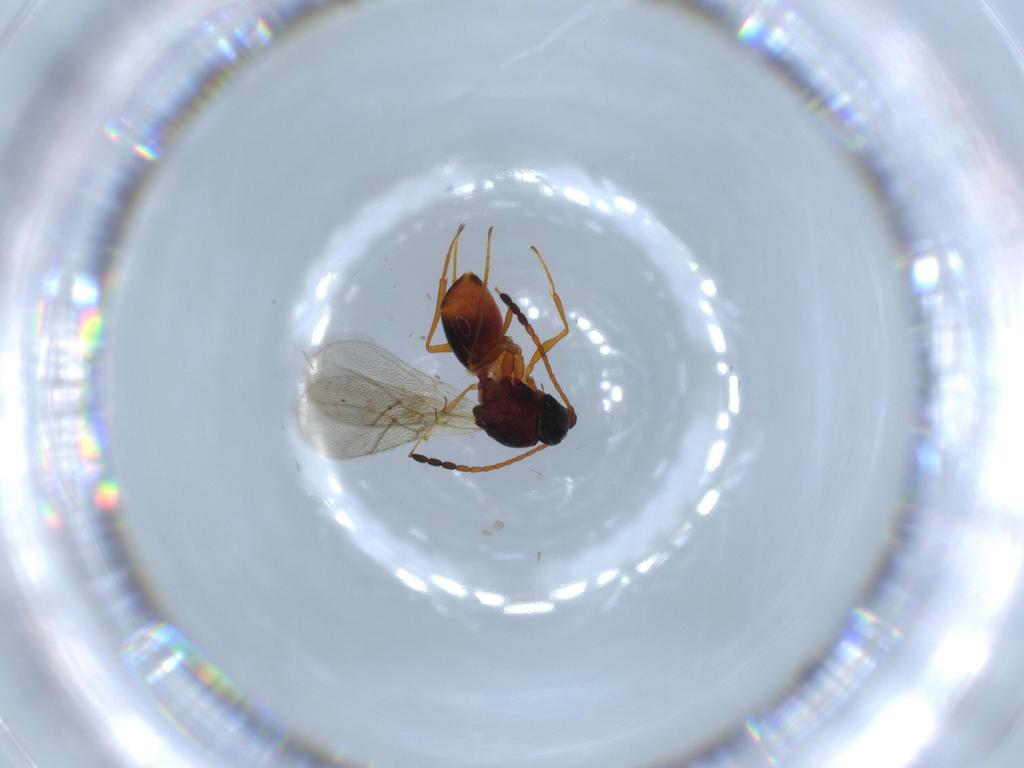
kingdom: Animalia
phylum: Arthropoda
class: Insecta
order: Hymenoptera
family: Figitidae
